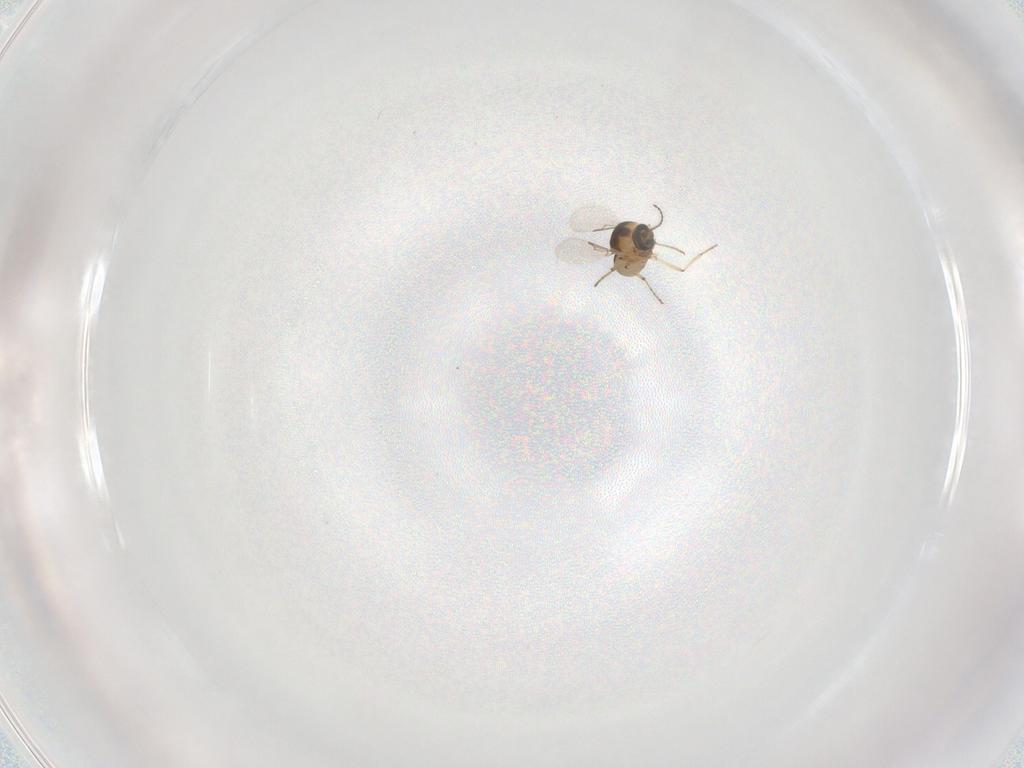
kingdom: Animalia
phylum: Arthropoda
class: Insecta
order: Diptera
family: Ceratopogonidae
